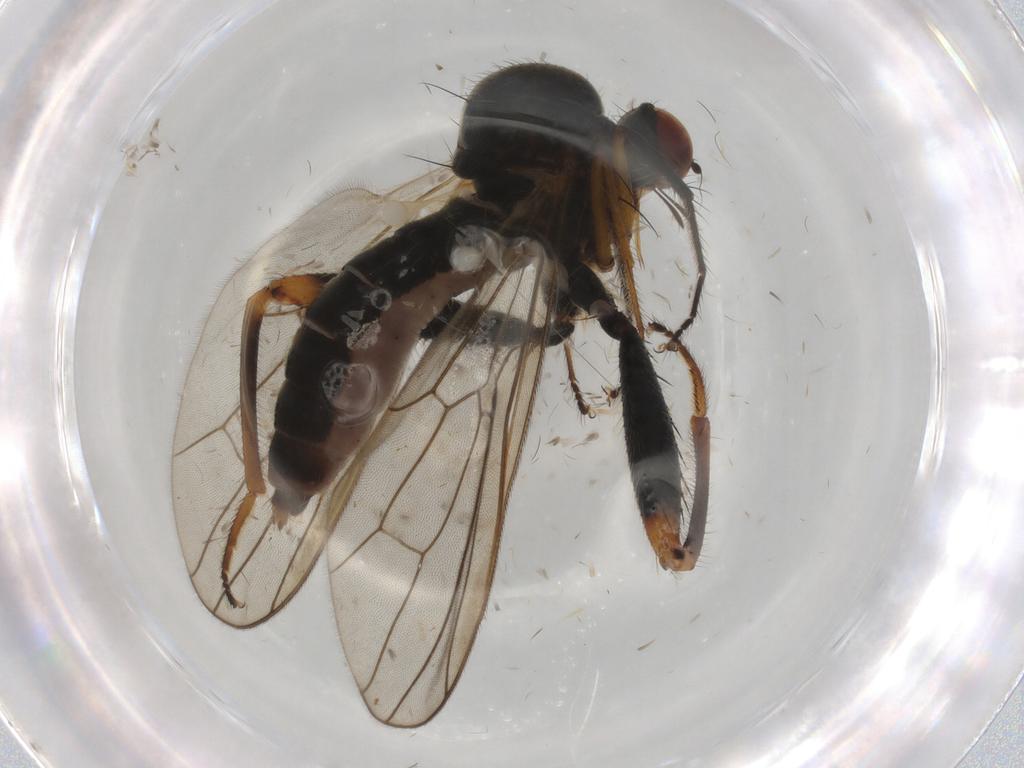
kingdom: Animalia
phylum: Arthropoda
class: Insecta
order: Diptera
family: Hybotidae
